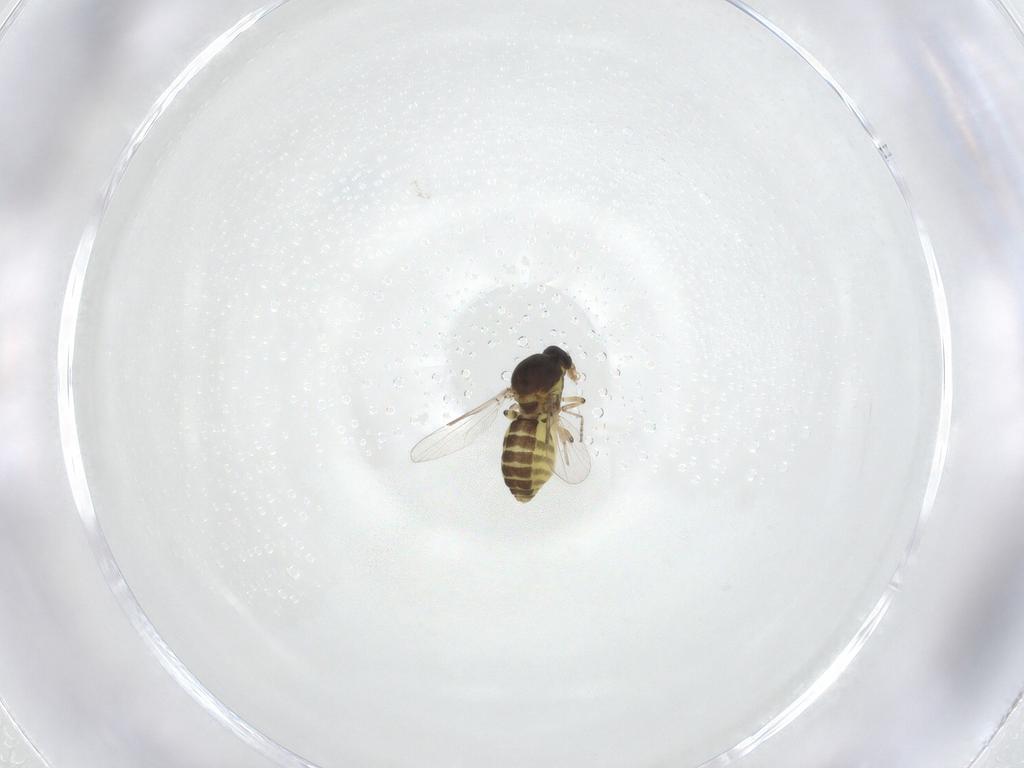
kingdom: Animalia
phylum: Arthropoda
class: Insecta
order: Diptera
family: Ceratopogonidae
